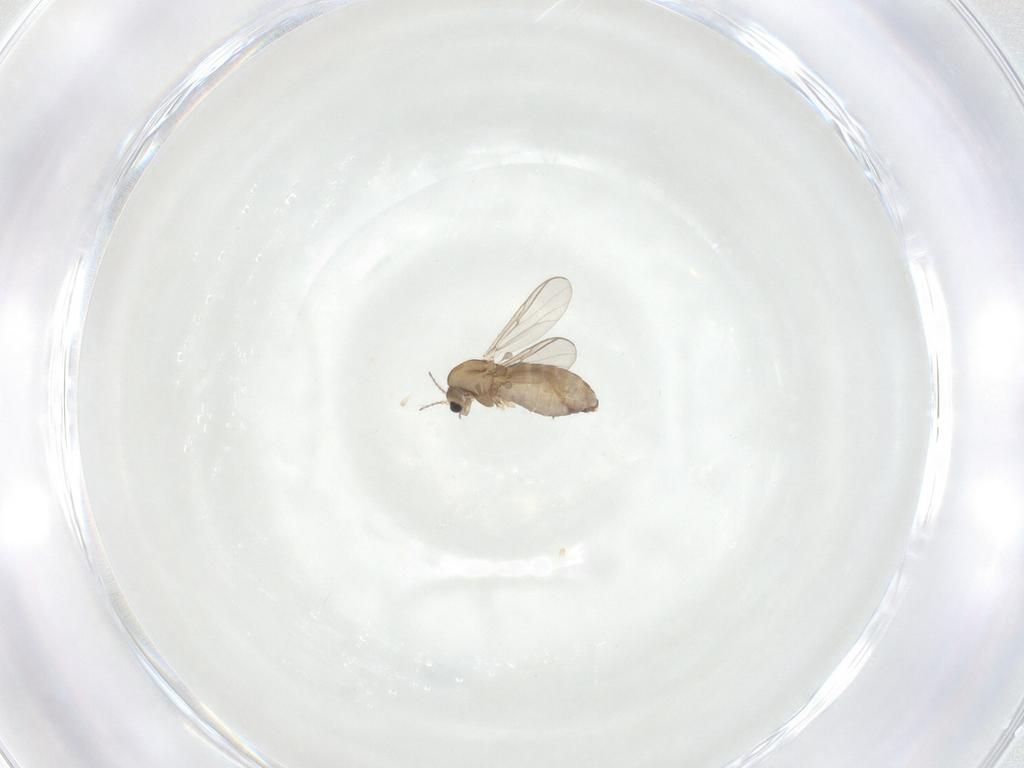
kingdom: Animalia
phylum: Arthropoda
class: Insecta
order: Diptera
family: Chironomidae
